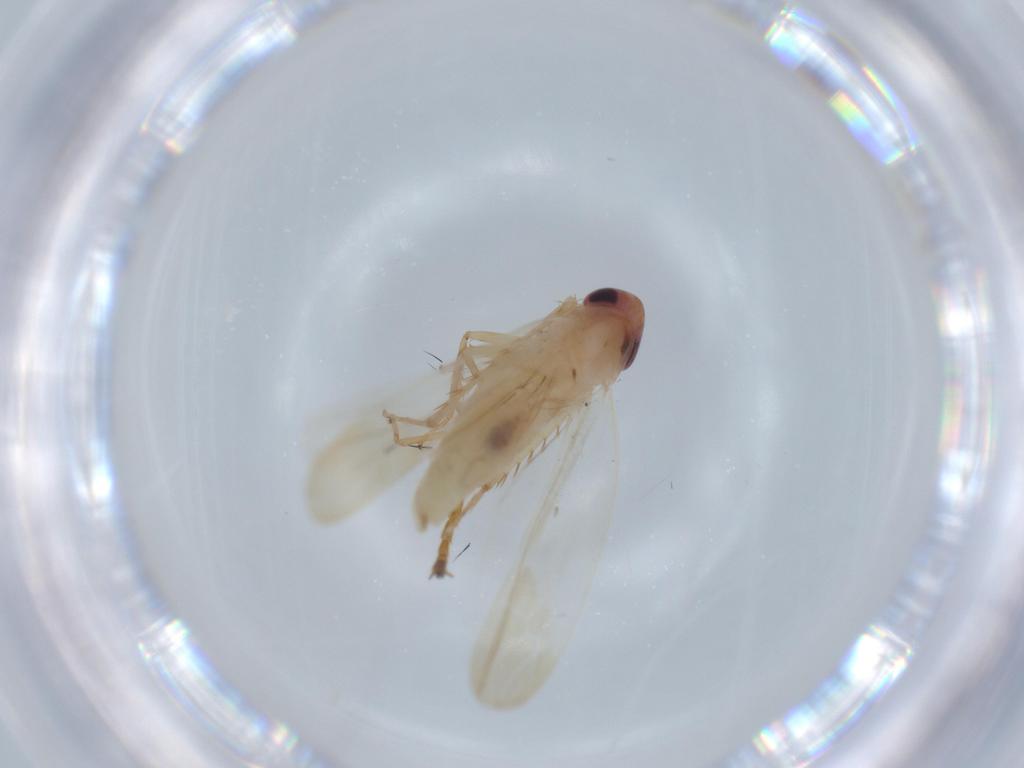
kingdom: Animalia
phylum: Arthropoda
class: Insecta
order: Hemiptera
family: Cicadellidae
